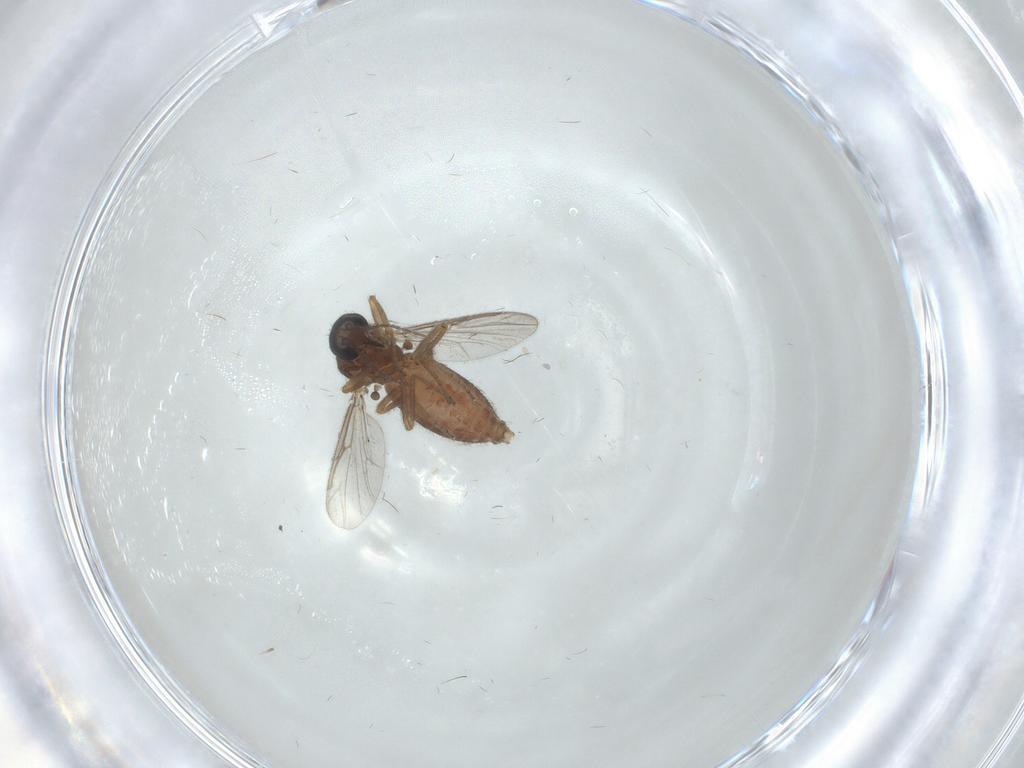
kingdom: Animalia
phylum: Arthropoda
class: Insecta
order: Diptera
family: Ceratopogonidae
